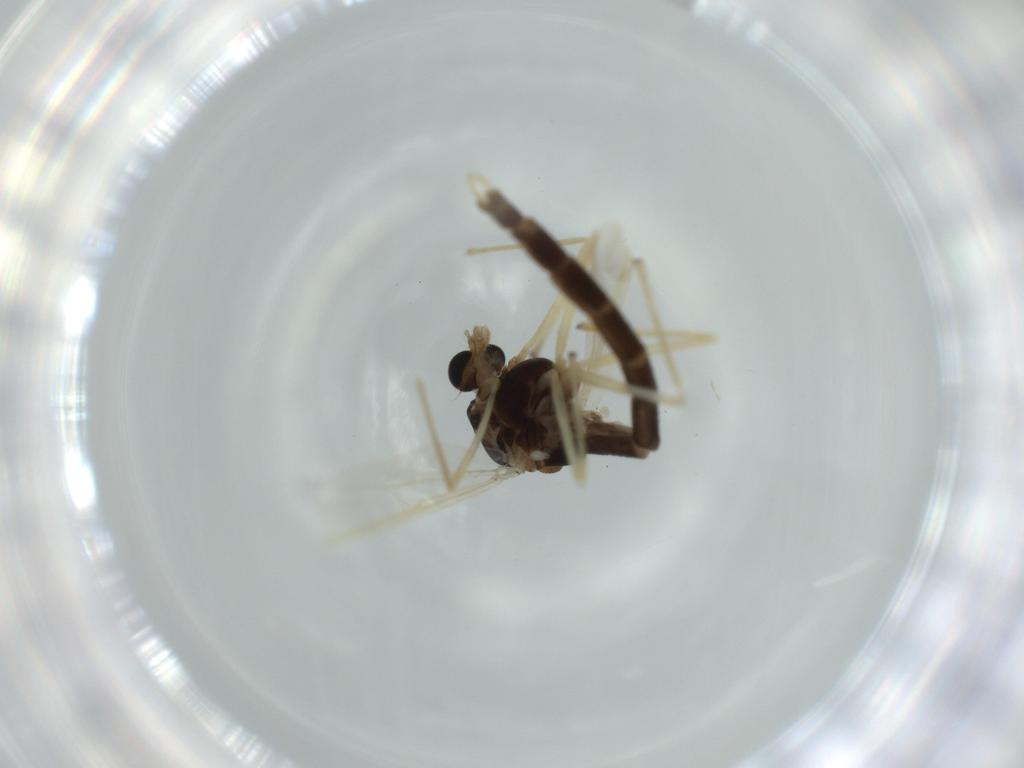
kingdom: Animalia
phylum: Arthropoda
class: Insecta
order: Diptera
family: Chironomidae
